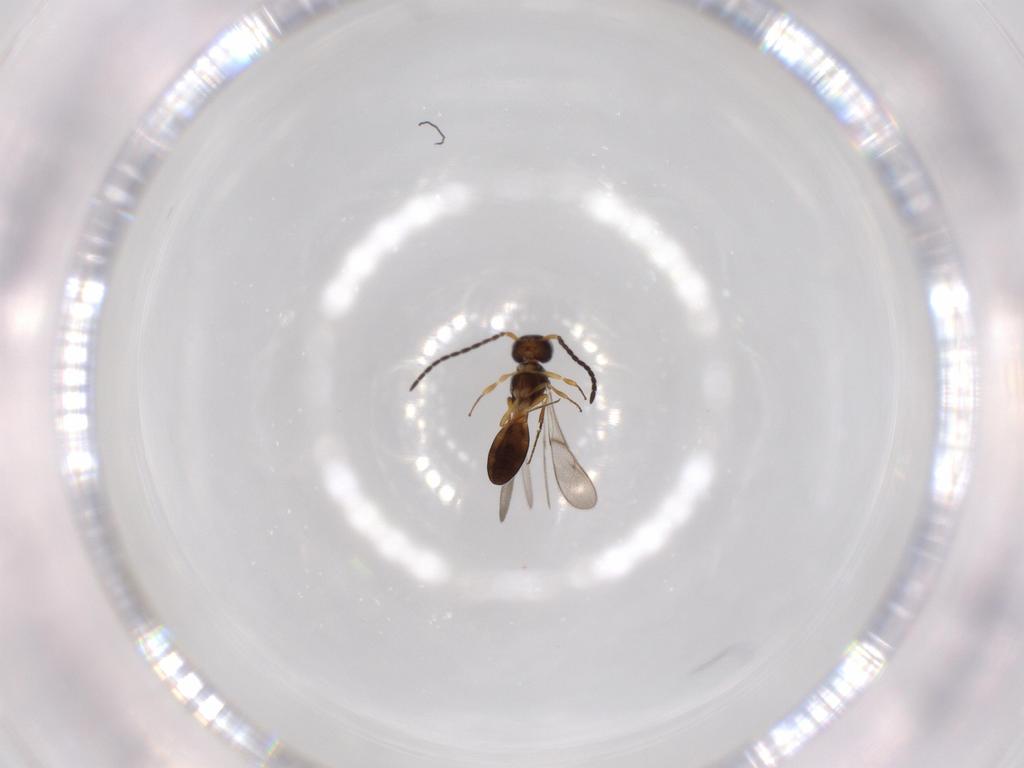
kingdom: Animalia
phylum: Arthropoda
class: Insecta
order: Hymenoptera
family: Scelionidae
